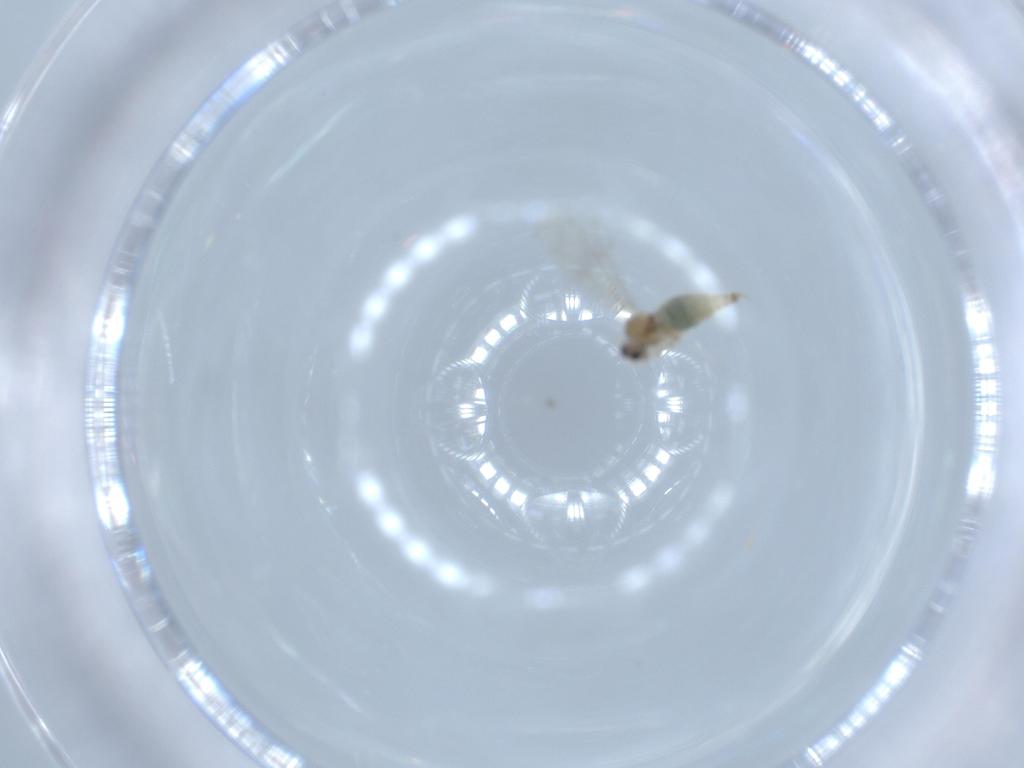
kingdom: Animalia
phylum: Arthropoda
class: Insecta
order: Diptera
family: Cecidomyiidae
